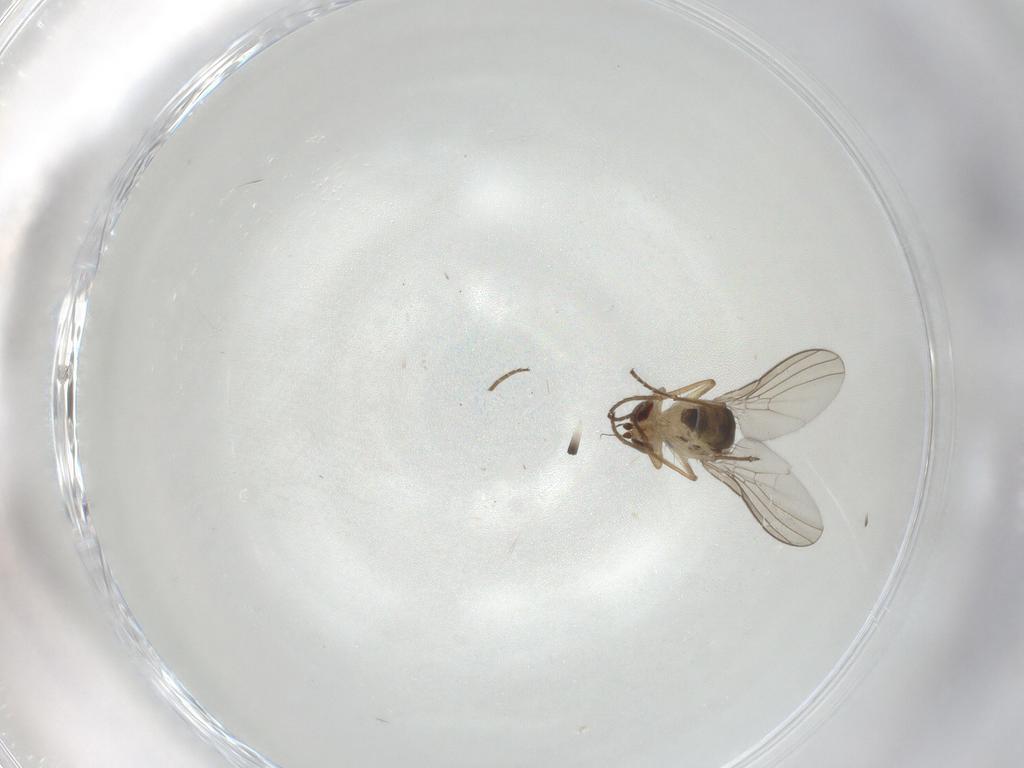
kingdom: Animalia
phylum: Arthropoda
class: Insecta
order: Diptera
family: Agromyzidae
